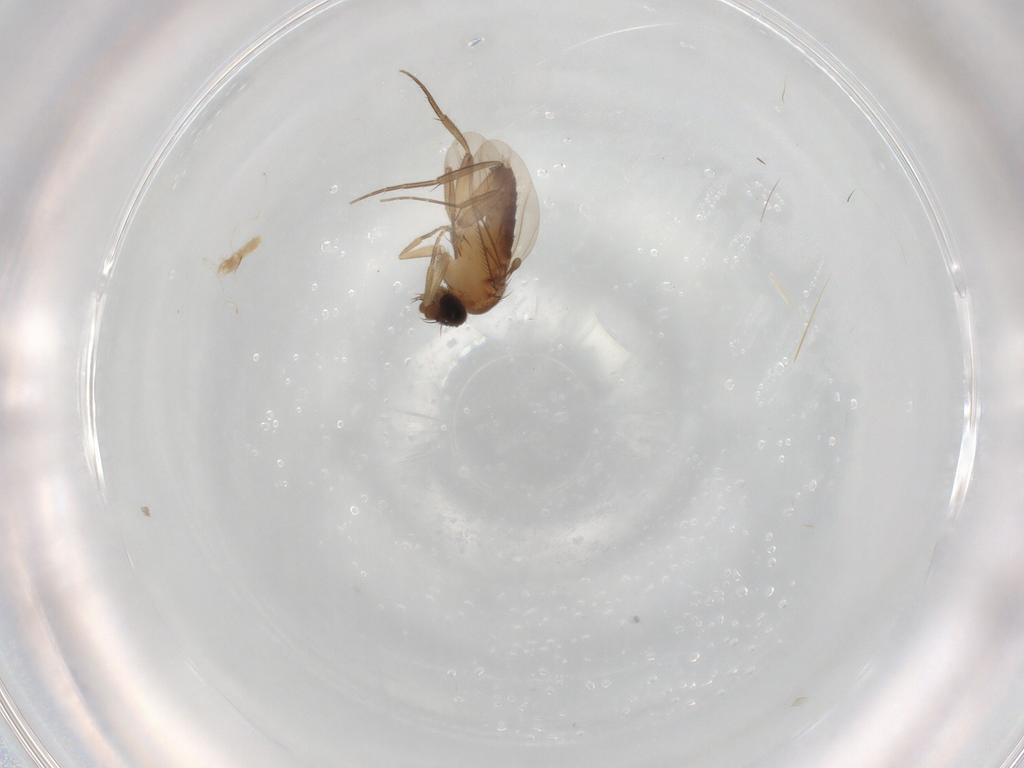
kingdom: Animalia
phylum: Arthropoda
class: Insecta
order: Diptera
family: Phoridae
